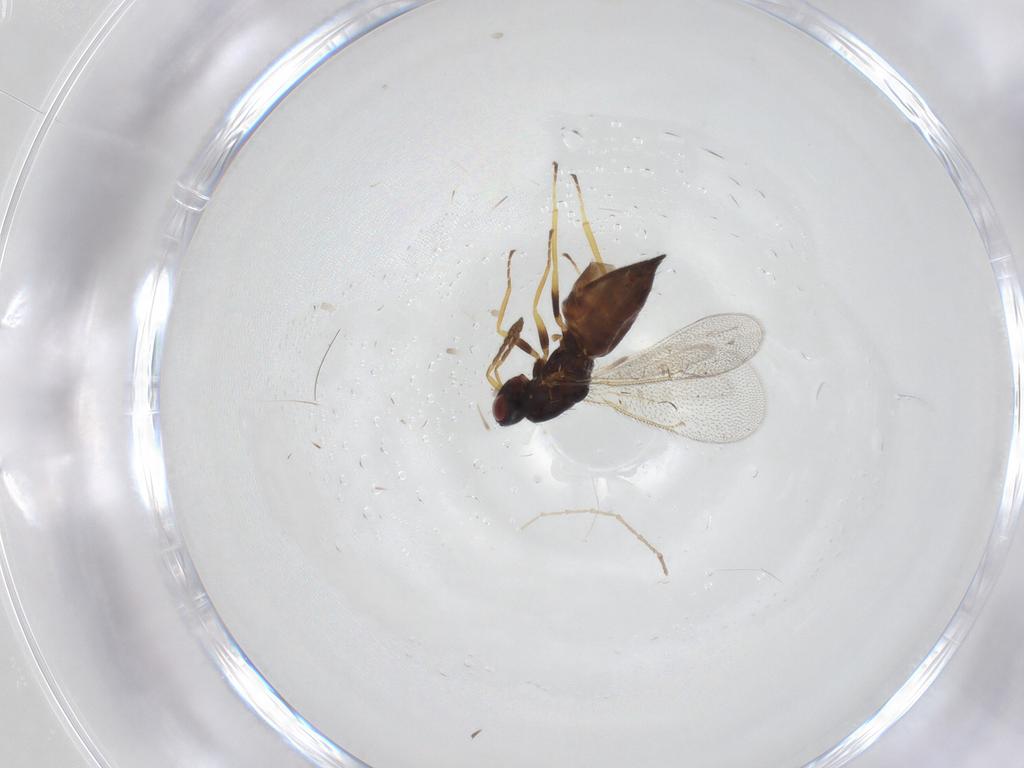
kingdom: Animalia
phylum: Arthropoda
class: Insecta
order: Hymenoptera
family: Eulophidae
